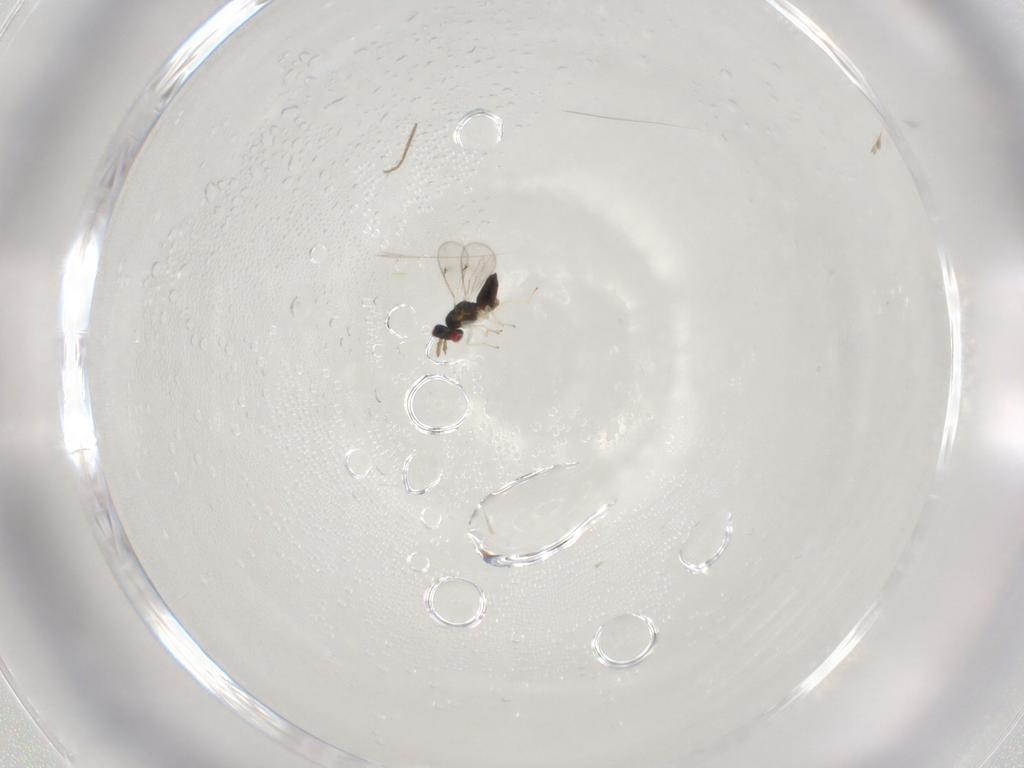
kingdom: Animalia
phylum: Arthropoda
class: Insecta
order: Diptera
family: Chironomidae
